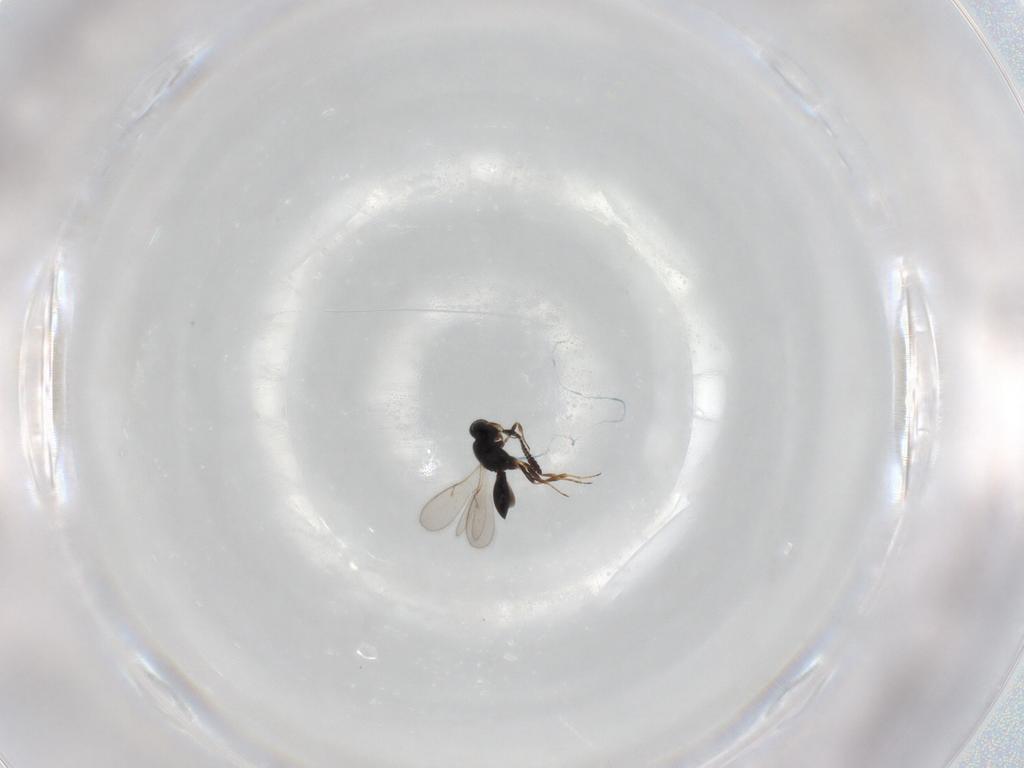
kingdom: Animalia
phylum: Arthropoda
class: Insecta
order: Hymenoptera
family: Scelionidae
